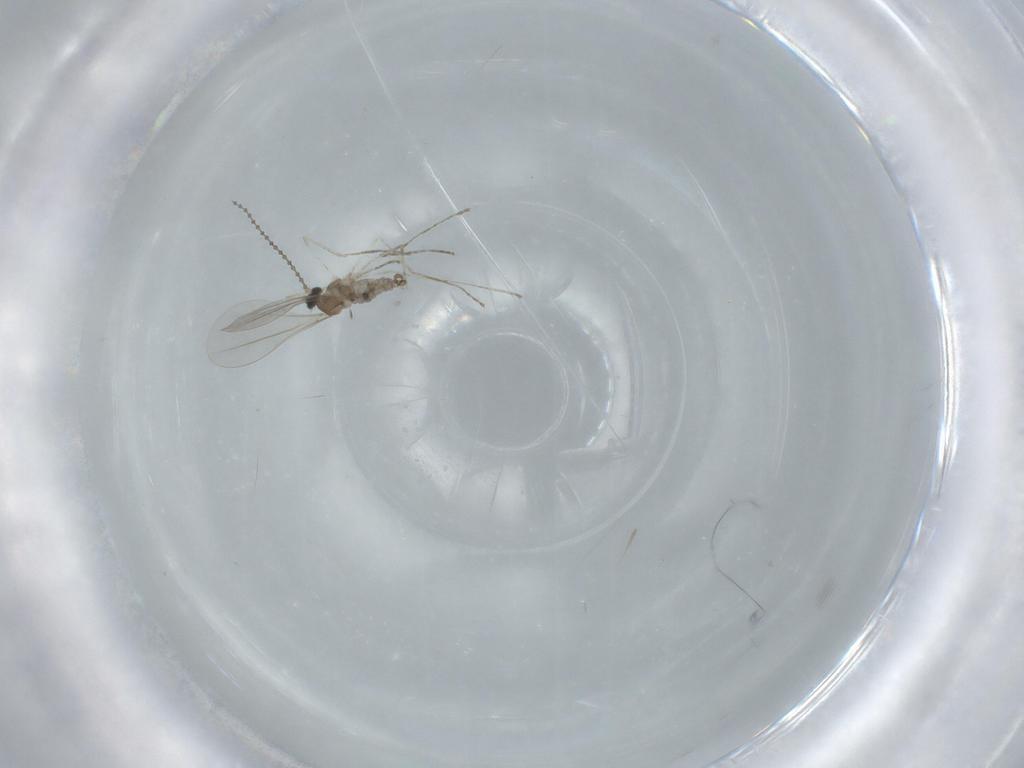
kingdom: Animalia
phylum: Arthropoda
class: Insecta
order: Diptera
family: Cecidomyiidae
